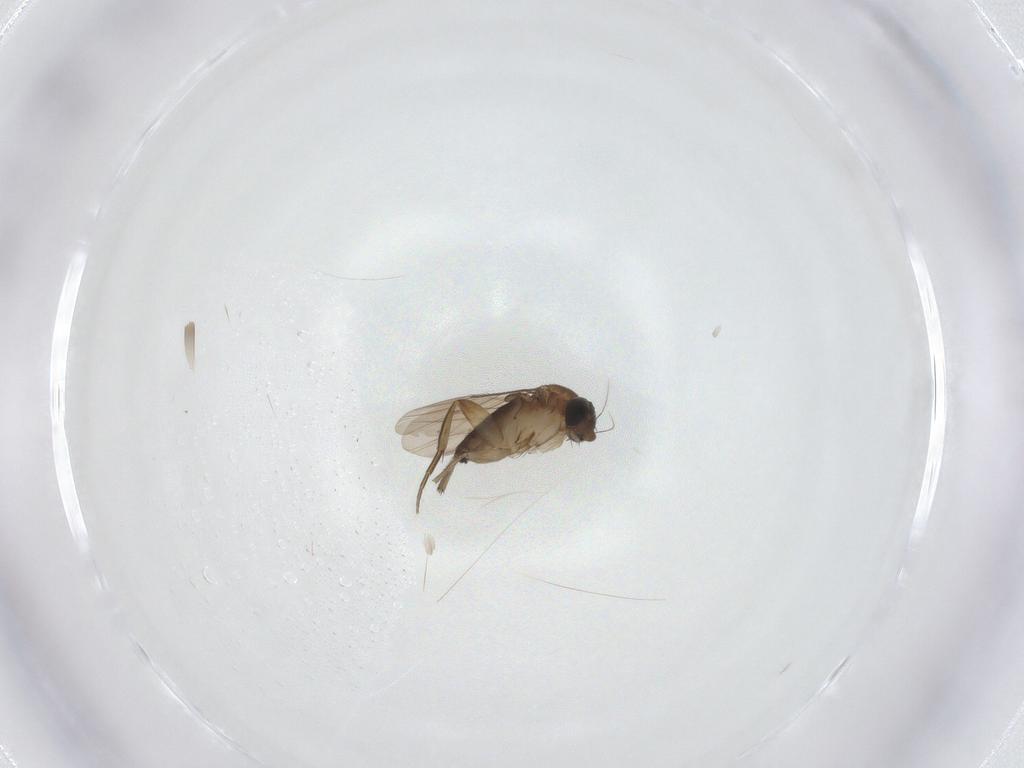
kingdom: Animalia
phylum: Arthropoda
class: Insecta
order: Diptera
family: Phoridae
